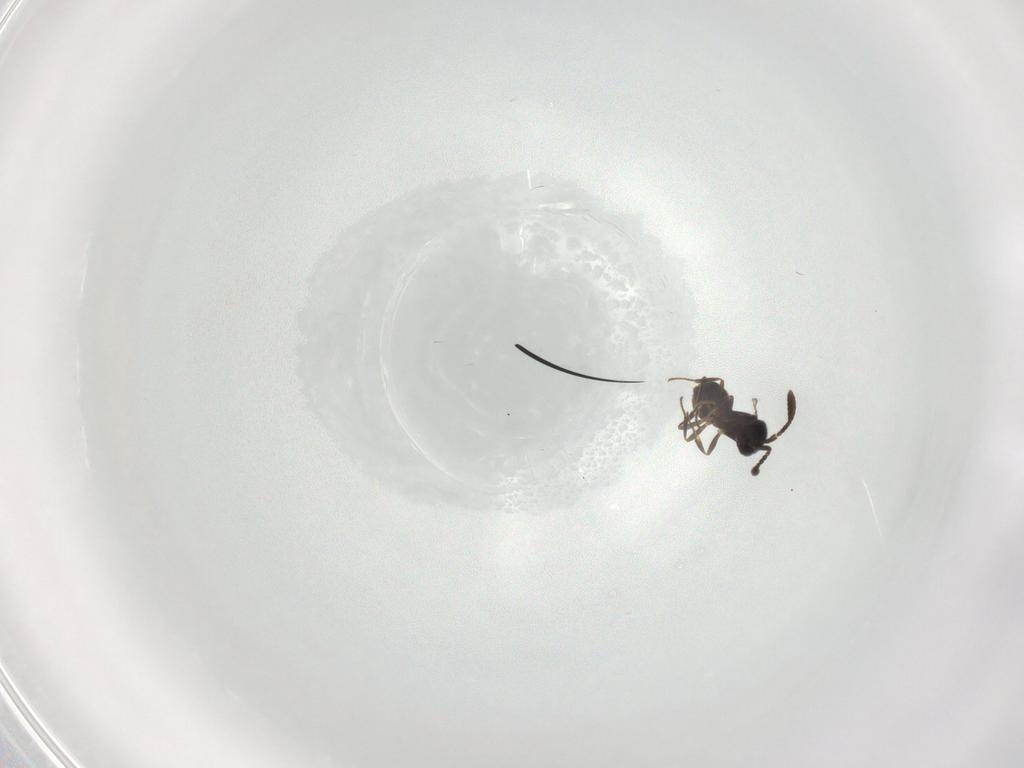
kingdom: Animalia
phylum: Arthropoda
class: Insecta
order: Hymenoptera
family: Scelionidae
